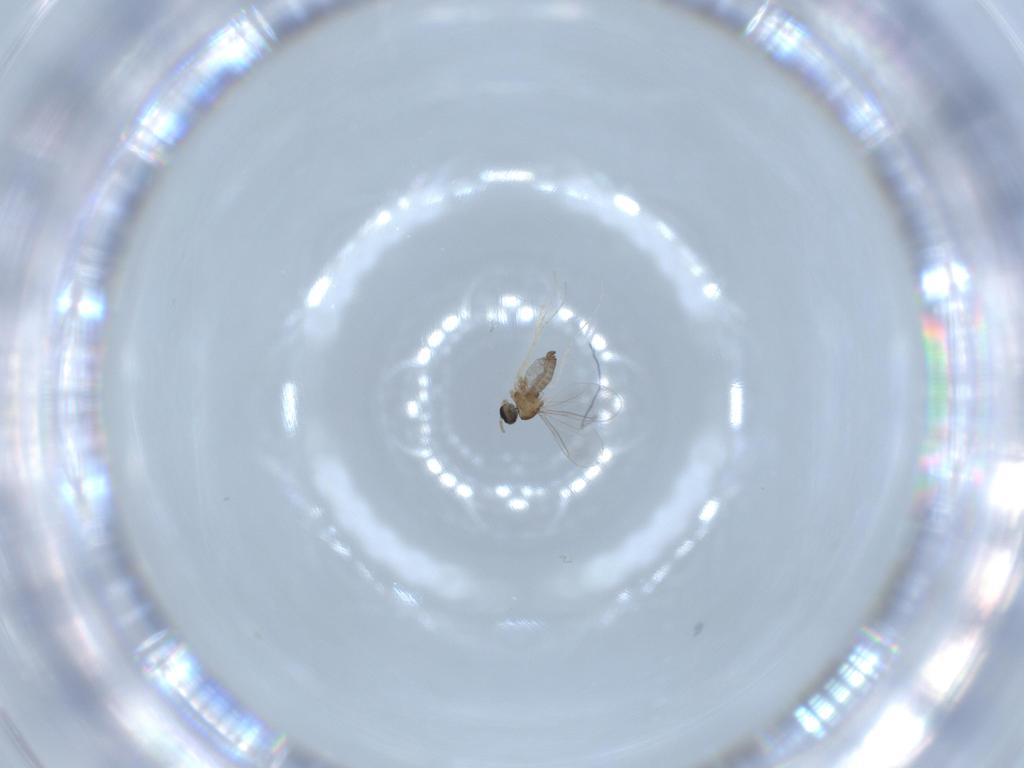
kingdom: Animalia
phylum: Arthropoda
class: Insecta
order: Diptera
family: Cecidomyiidae
